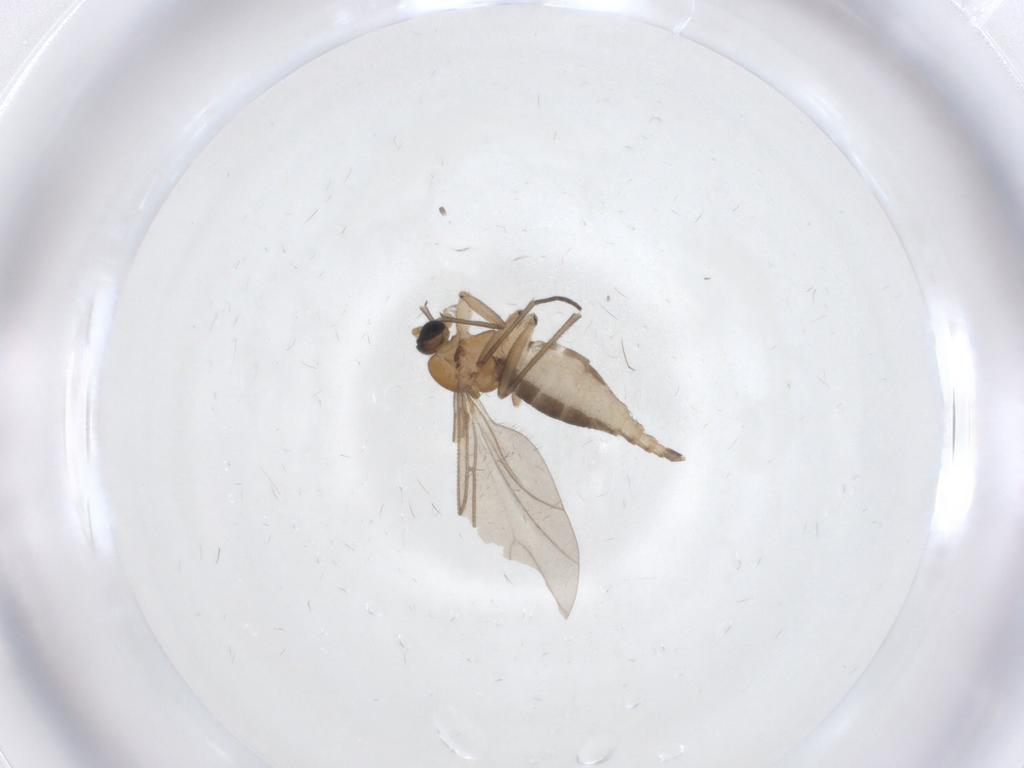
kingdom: Animalia
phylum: Arthropoda
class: Insecta
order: Diptera
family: Sciaridae
